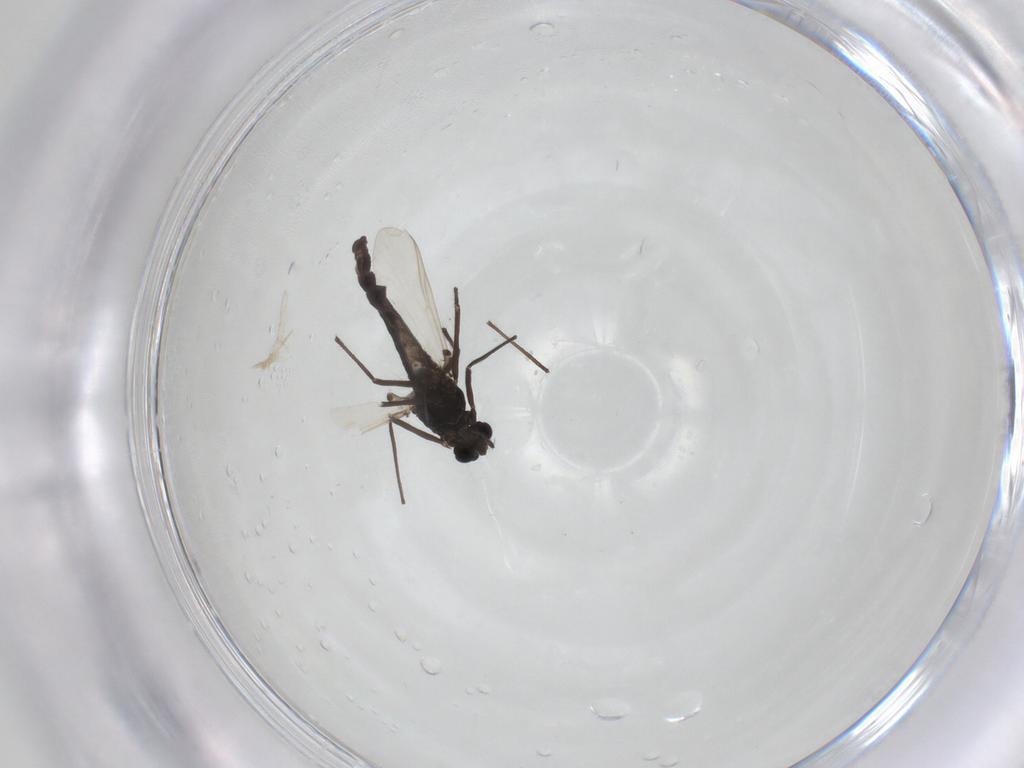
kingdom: Animalia
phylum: Arthropoda
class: Insecta
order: Diptera
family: Chironomidae
